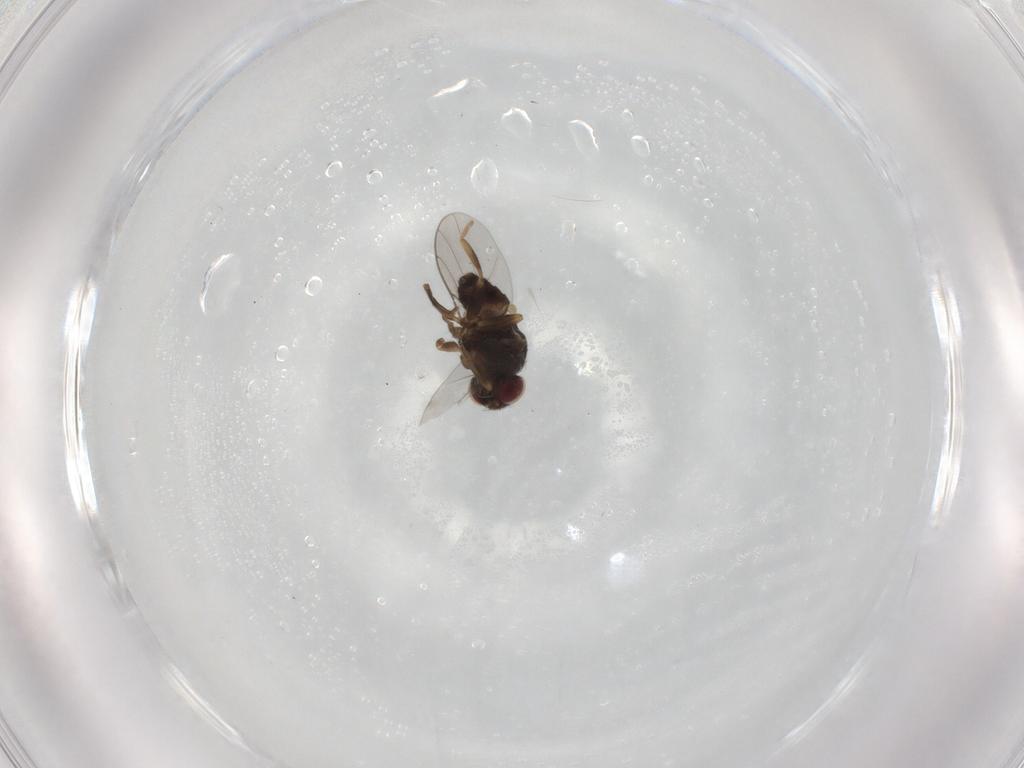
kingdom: Animalia
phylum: Arthropoda
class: Insecta
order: Diptera
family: Chloropidae
